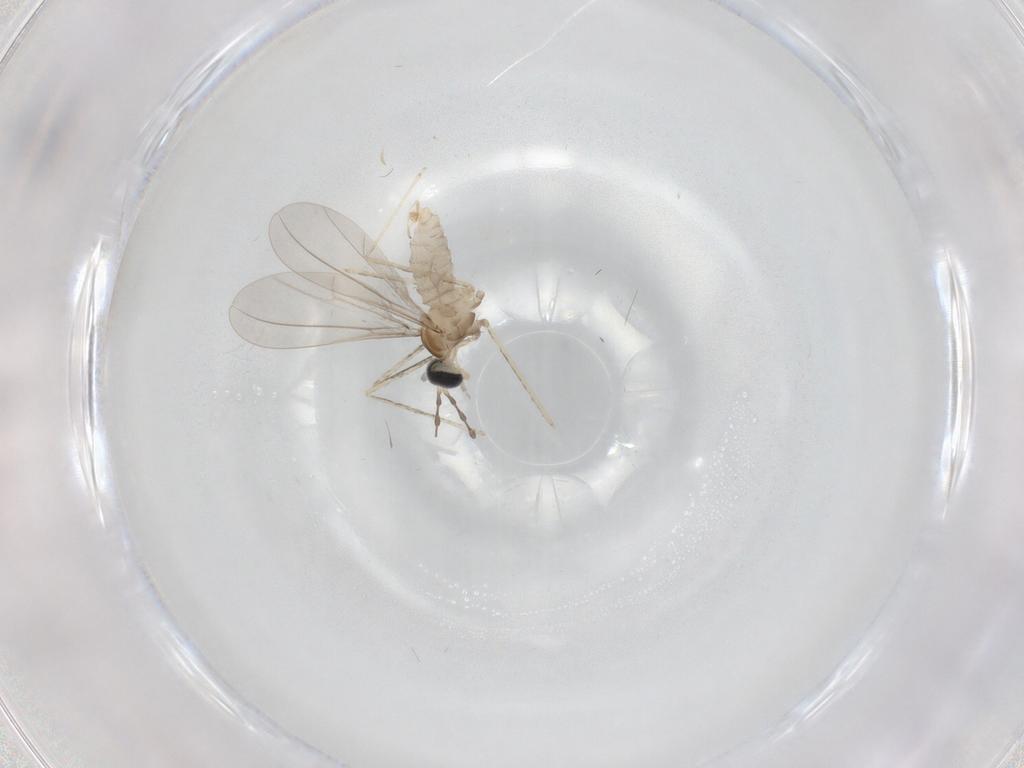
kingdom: Animalia
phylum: Arthropoda
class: Insecta
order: Diptera
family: Cecidomyiidae
